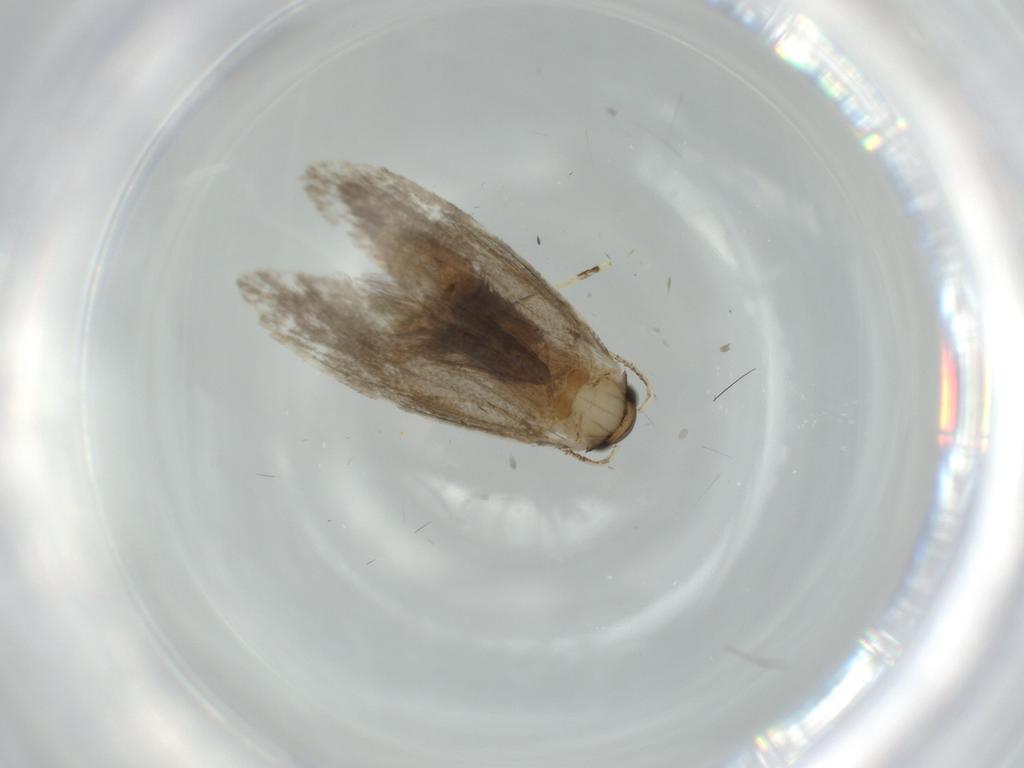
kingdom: Animalia
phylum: Arthropoda
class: Insecta
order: Lepidoptera
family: Tineidae
